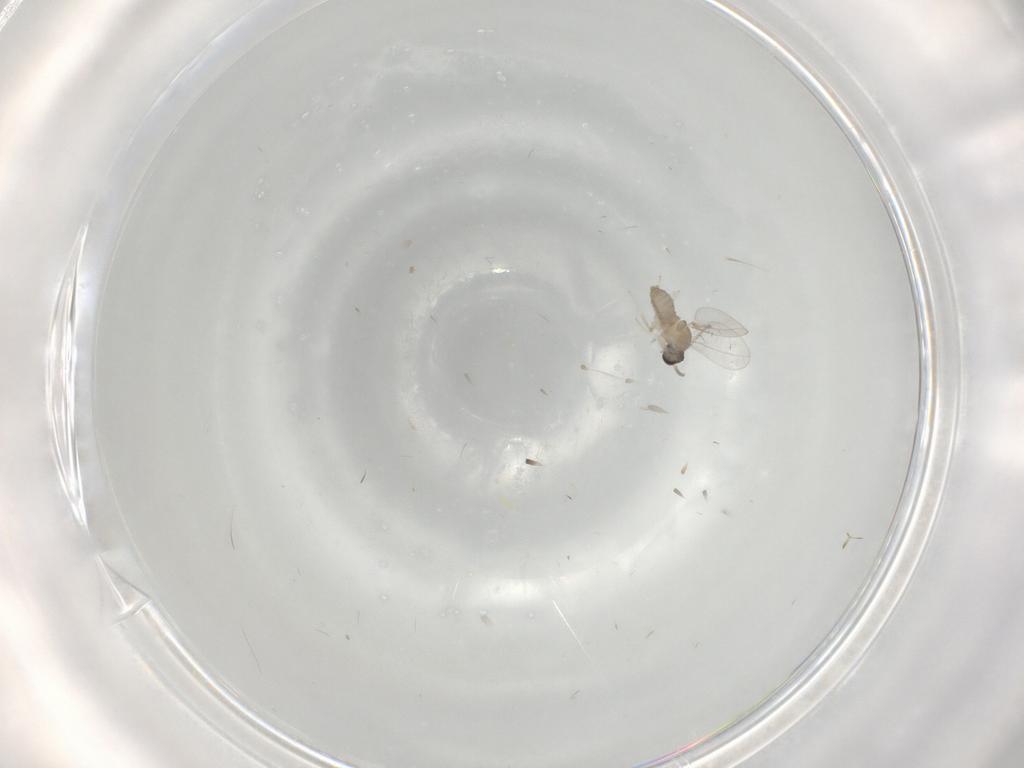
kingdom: Animalia
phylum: Arthropoda
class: Insecta
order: Diptera
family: Cecidomyiidae
